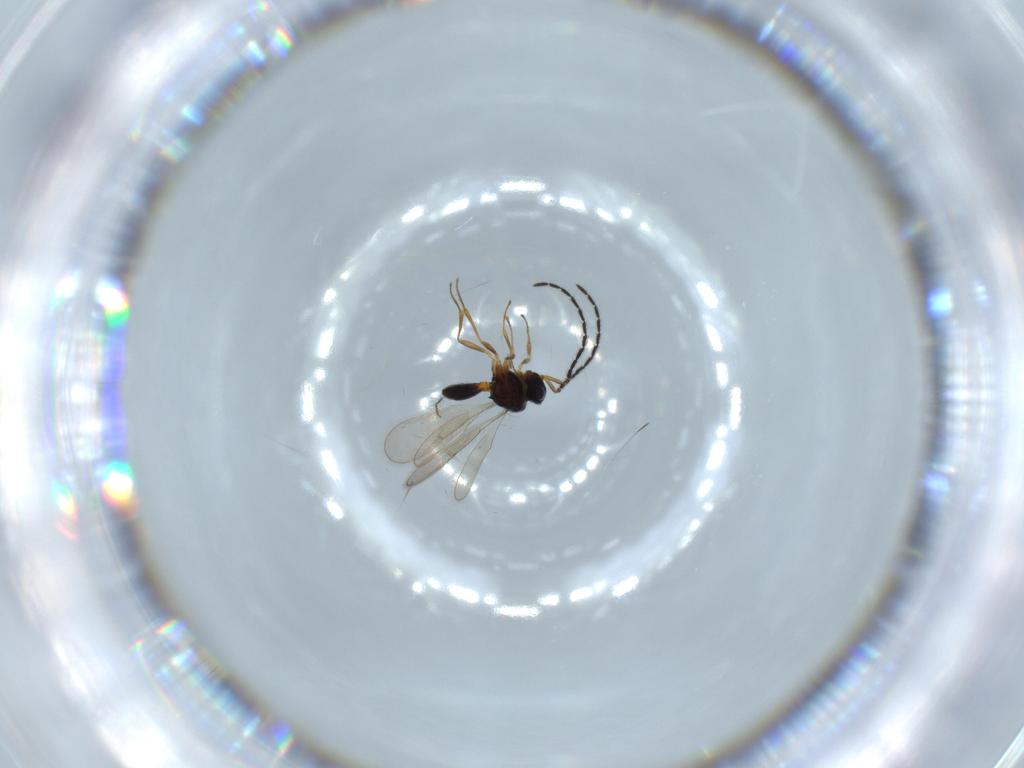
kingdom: Animalia
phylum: Arthropoda
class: Insecta
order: Hymenoptera
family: Scelionidae
